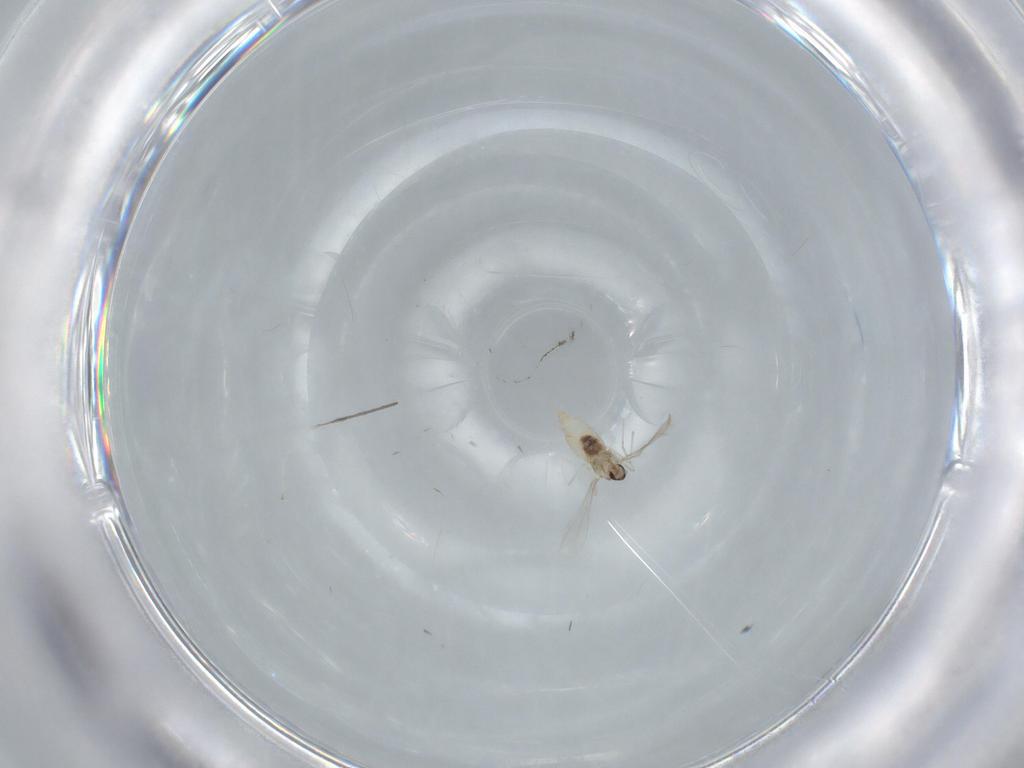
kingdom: Animalia
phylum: Arthropoda
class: Insecta
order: Diptera
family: Cecidomyiidae
